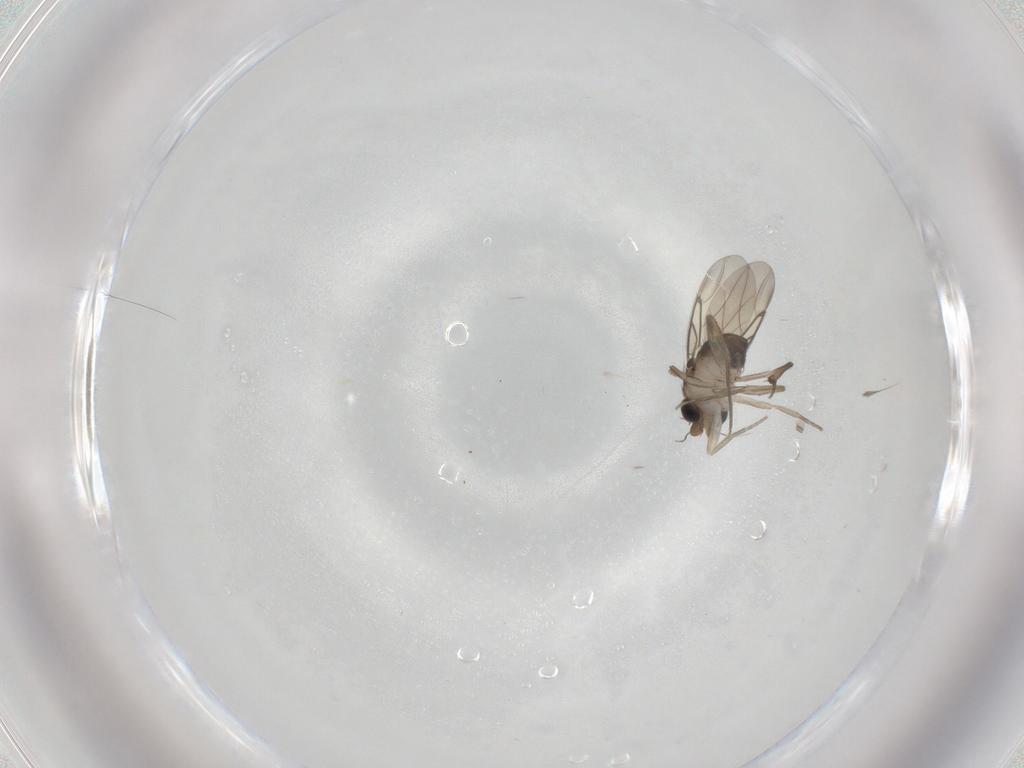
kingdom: Animalia
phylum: Arthropoda
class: Insecta
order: Diptera
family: Phoridae
